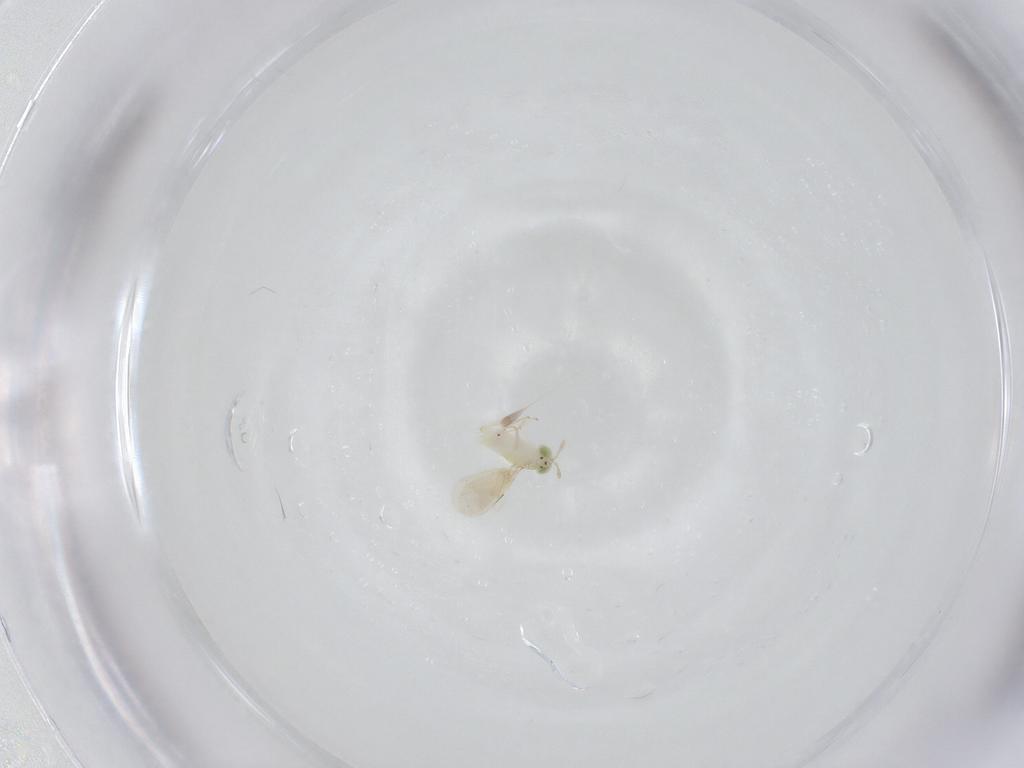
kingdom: Animalia
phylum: Arthropoda
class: Insecta
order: Hymenoptera
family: Aphelinidae
